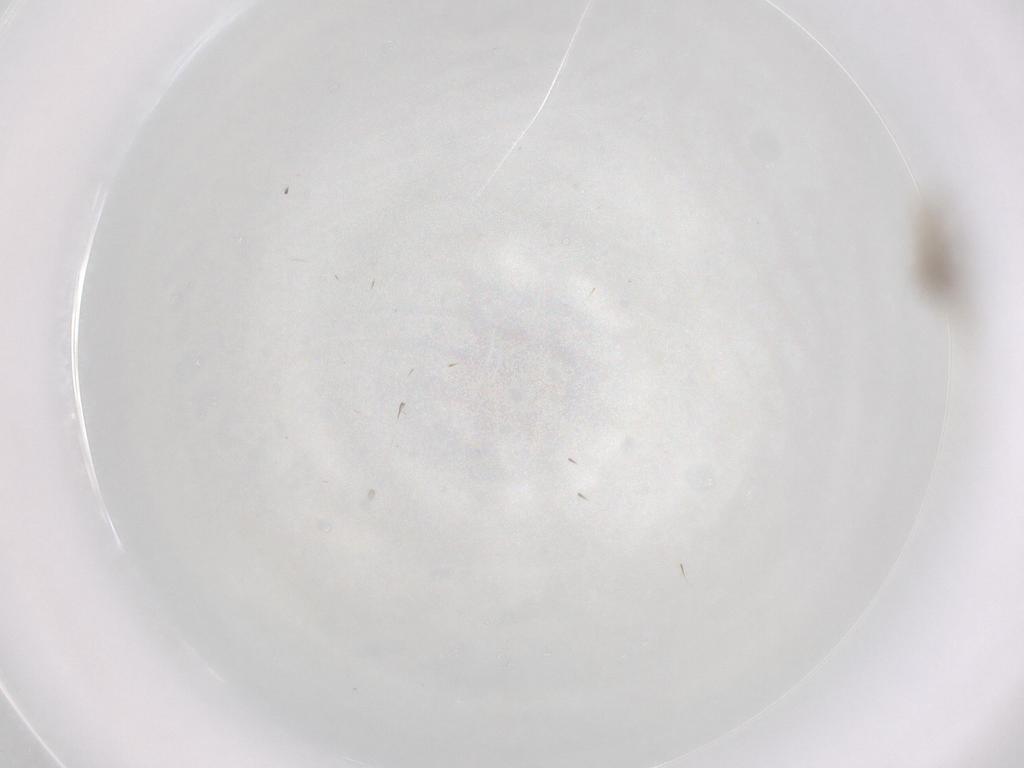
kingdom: Animalia
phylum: Arthropoda
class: Insecta
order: Diptera
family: Cecidomyiidae
